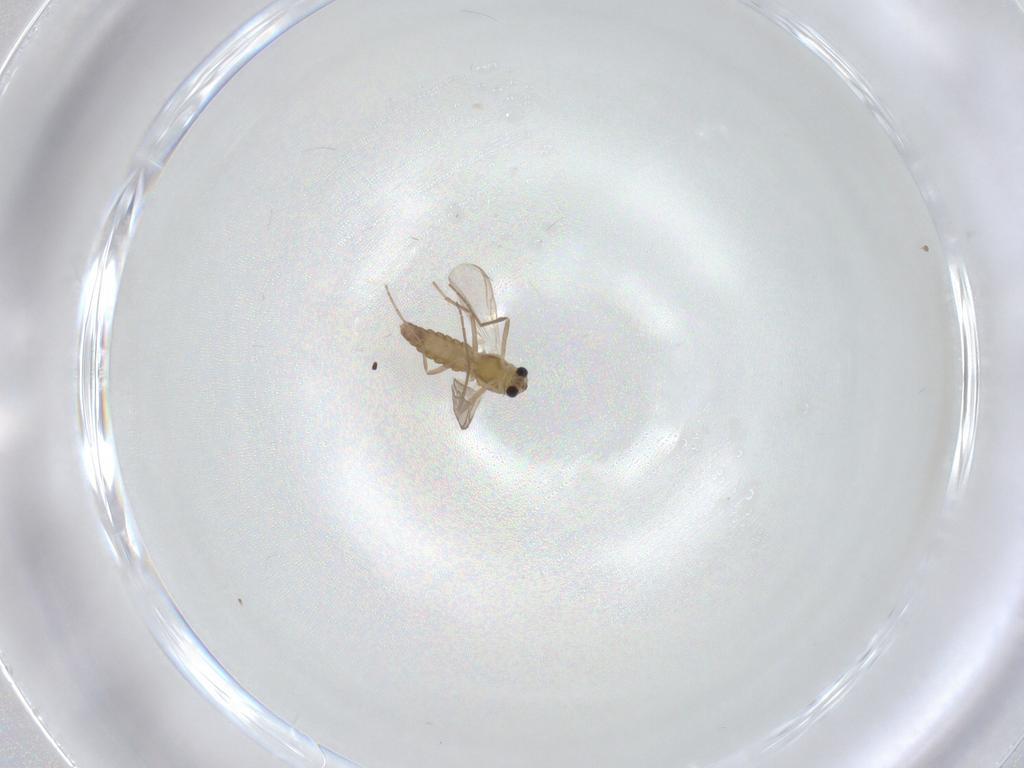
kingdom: Animalia
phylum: Arthropoda
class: Insecta
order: Diptera
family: Chironomidae
